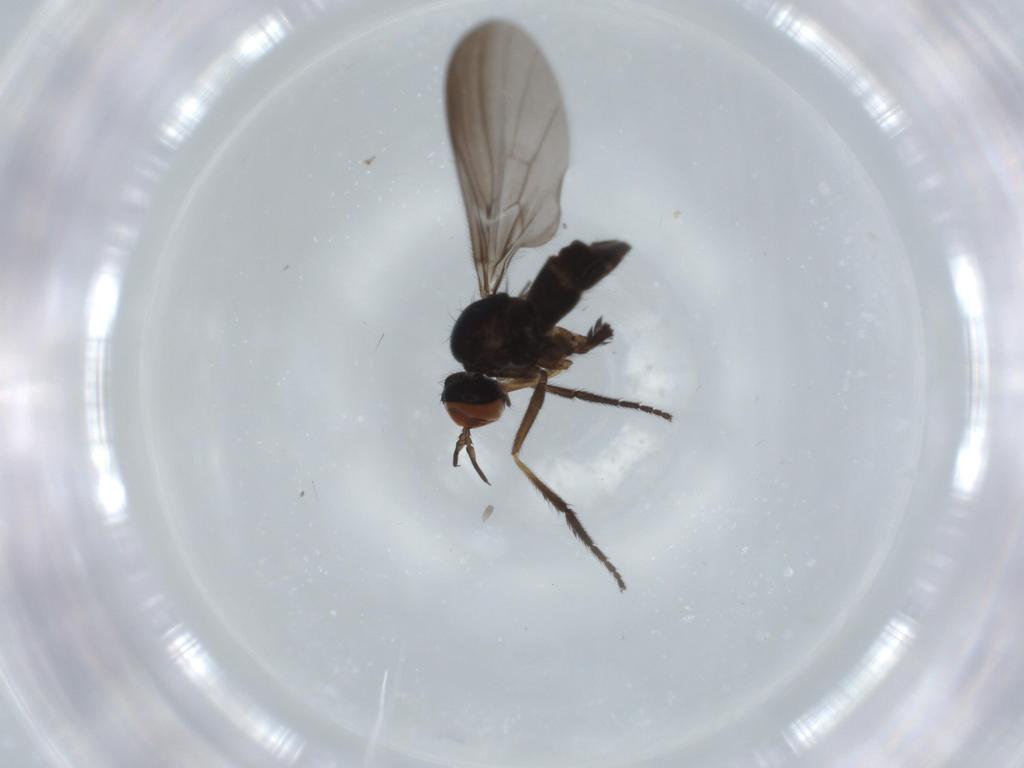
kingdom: Animalia
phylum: Arthropoda
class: Insecta
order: Diptera
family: Empididae
